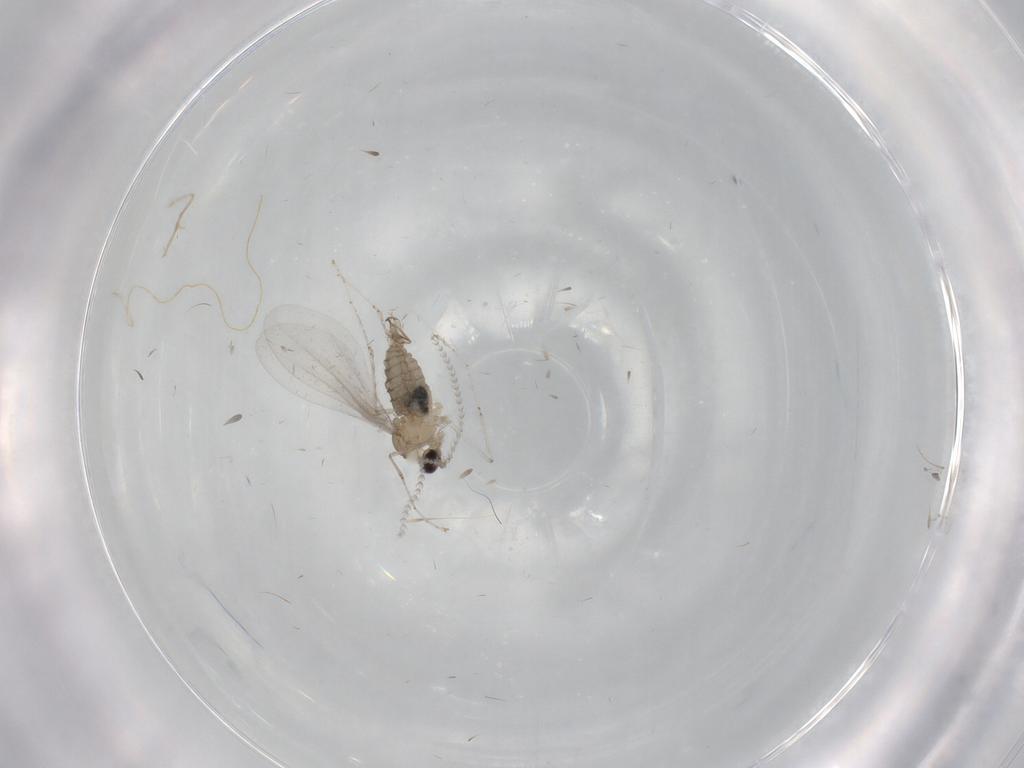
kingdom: Animalia
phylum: Arthropoda
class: Insecta
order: Diptera
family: Cecidomyiidae
